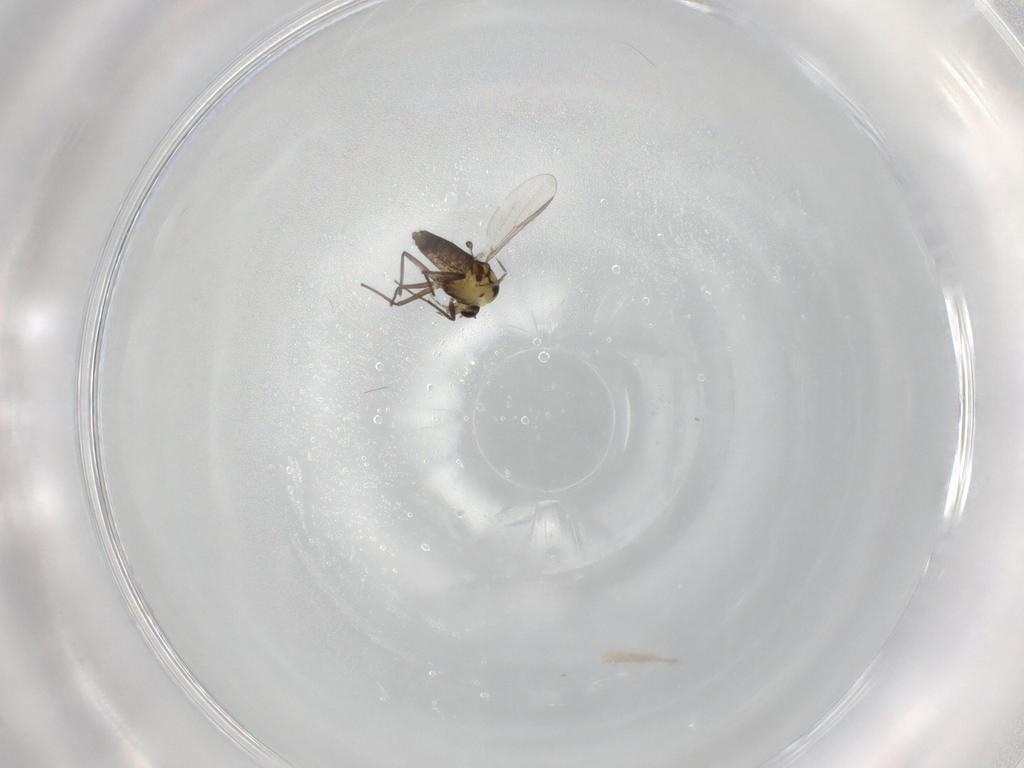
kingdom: Animalia
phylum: Arthropoda
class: Insecta
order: Diptera
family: Chironomidae
